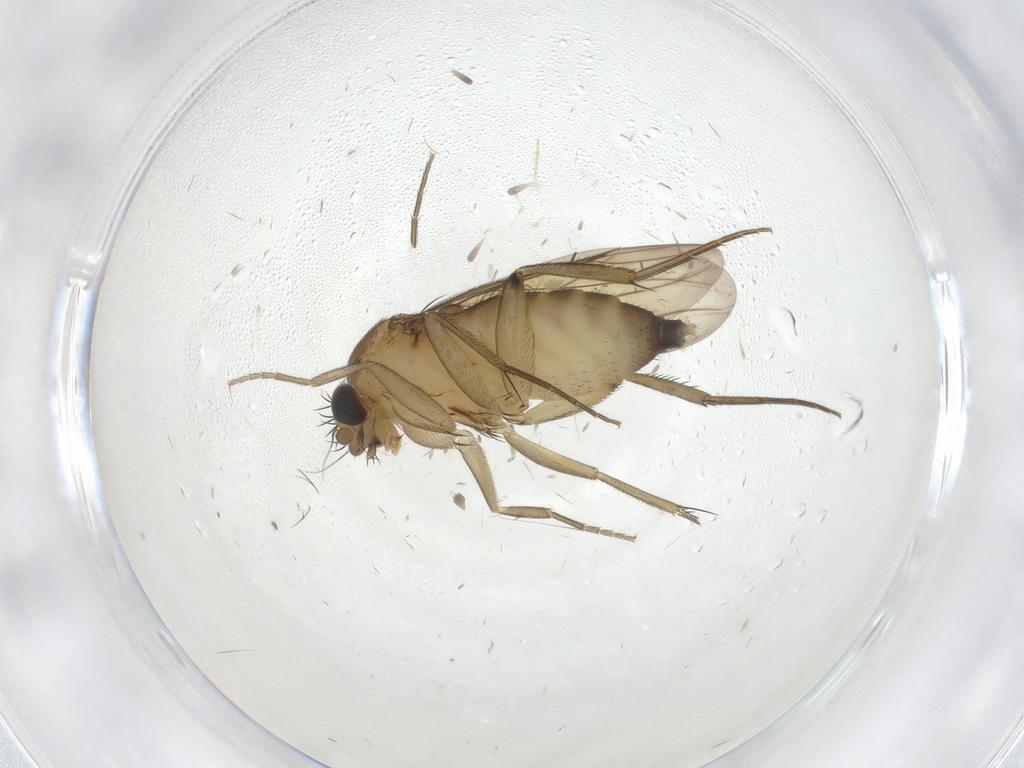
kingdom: Animalia
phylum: Arthropoda
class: Insecta
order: Diptera
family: Phoridae
